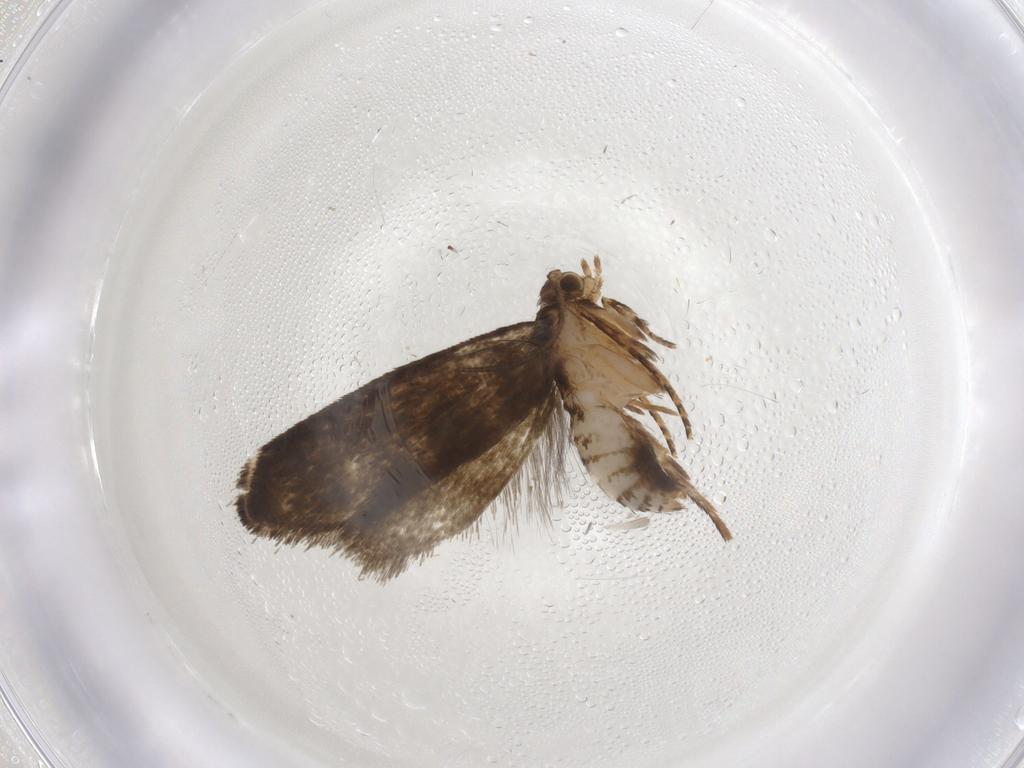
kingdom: Animalia
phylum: Arthropoda
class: Insecta
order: Lepidoptera
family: Tineidae
